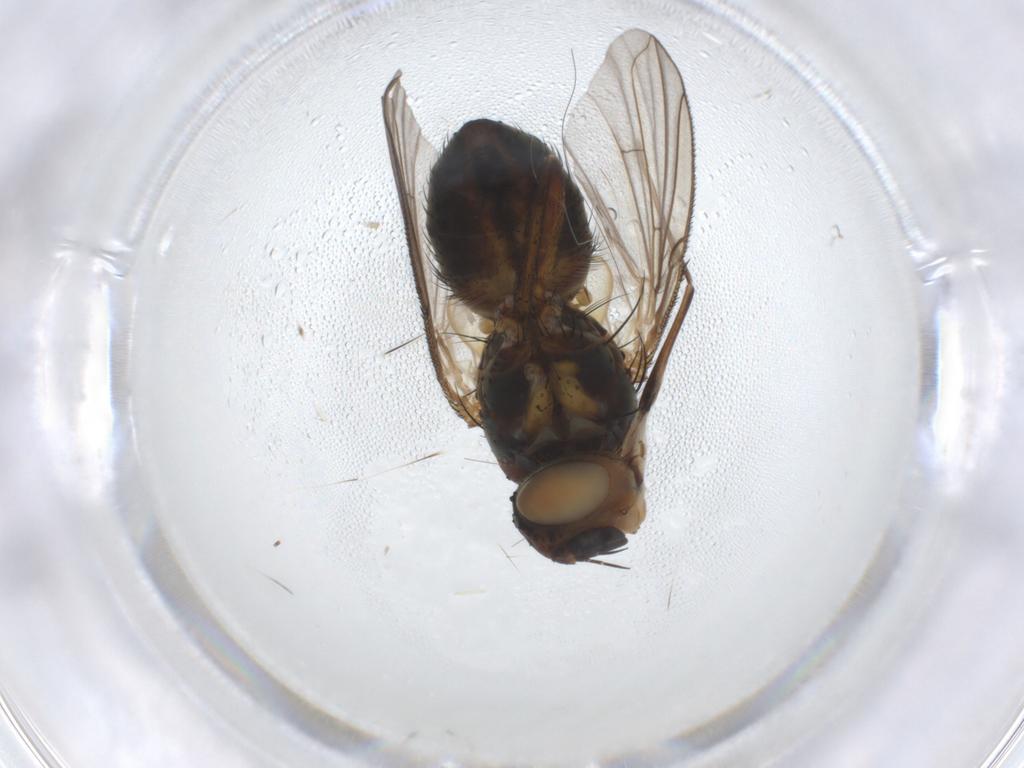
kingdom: Animalia
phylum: Arthropoda
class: Insecta
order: Diptera
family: Tachinidae
